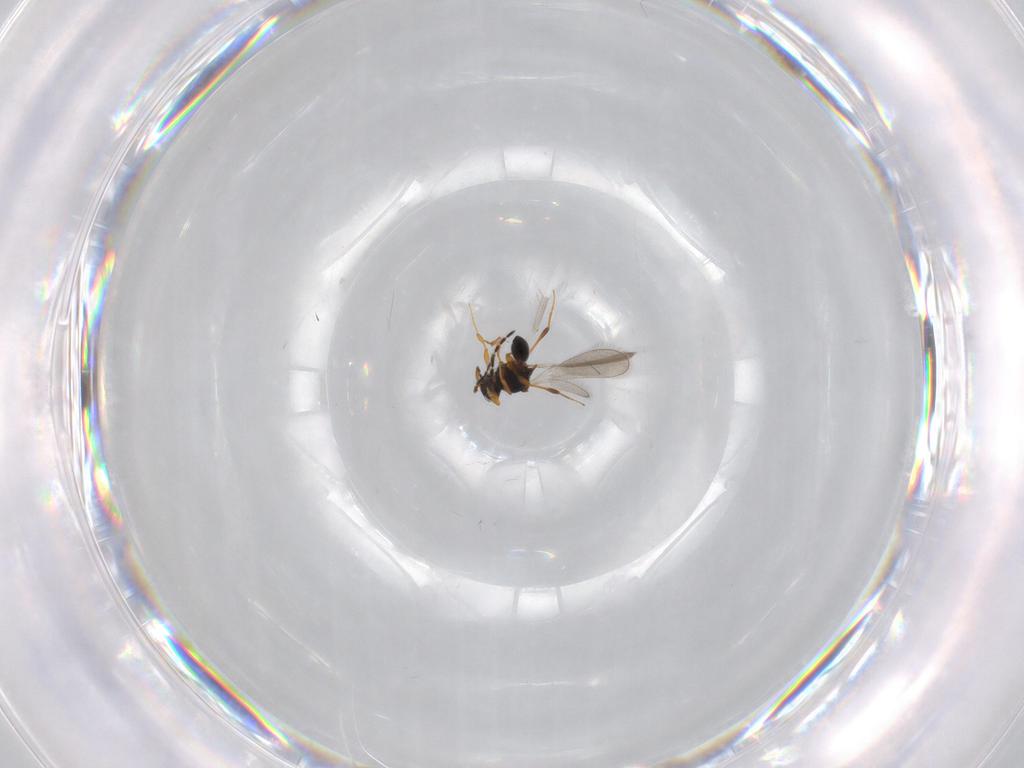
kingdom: Animalia
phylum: Arthropoda
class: Insecta
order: Hymenoptera
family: Platygastridae
